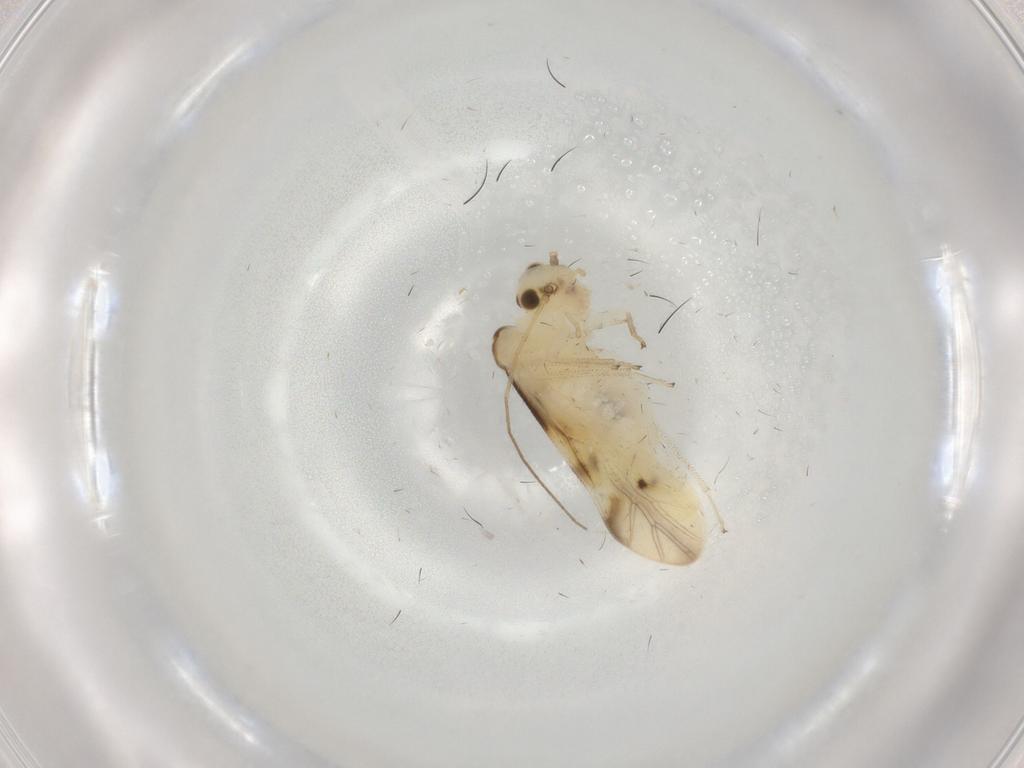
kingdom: Animalia
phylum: Arthropoda
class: Insecta
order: Psocodea
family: Caeciliusidae
